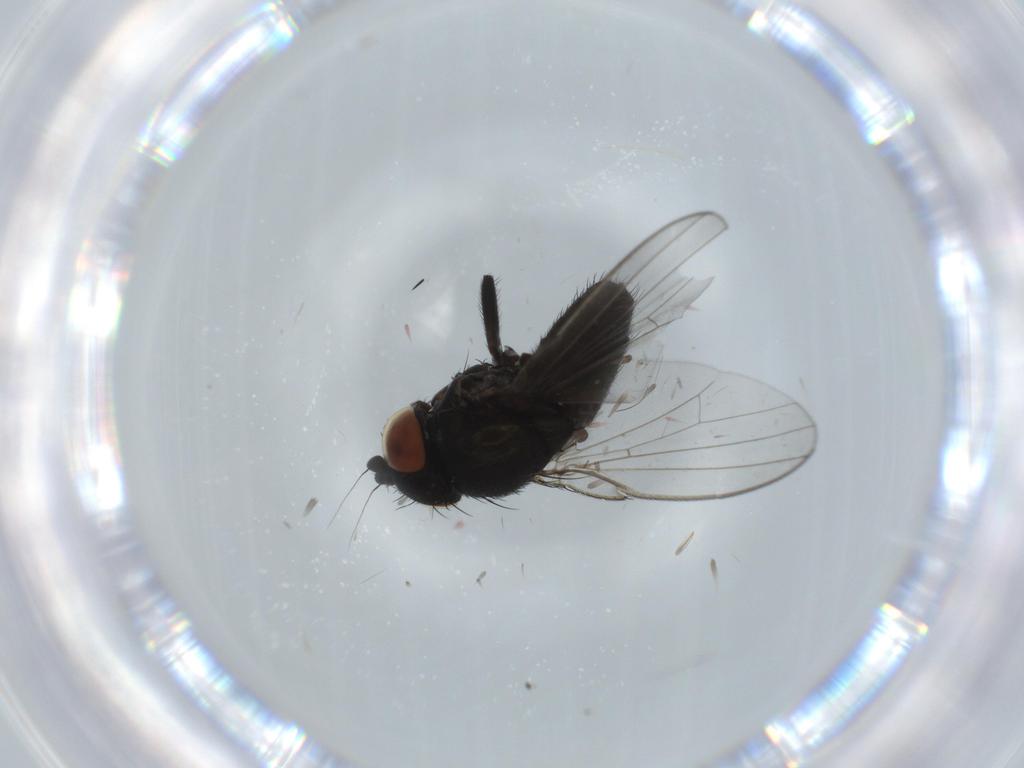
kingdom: Animalia
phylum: Arthropoda
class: Insecta
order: Diptera
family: Milichiidae
